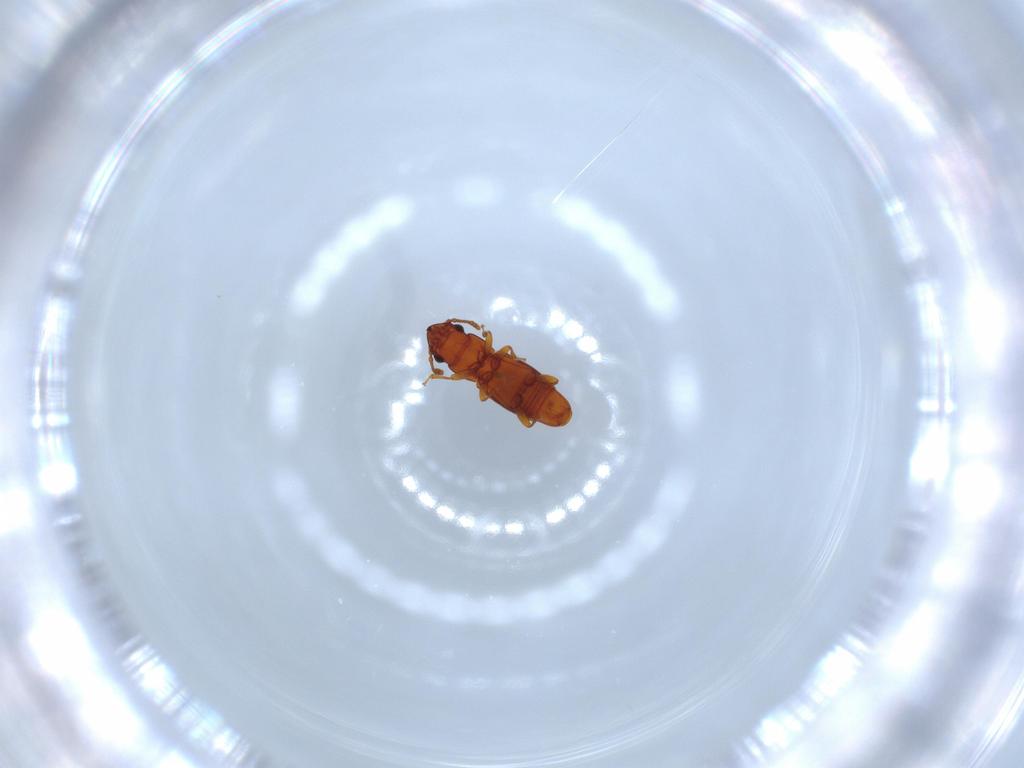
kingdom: Animalia
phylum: Arthropoda
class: Insecta
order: Coleoptera
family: Smicripidae
